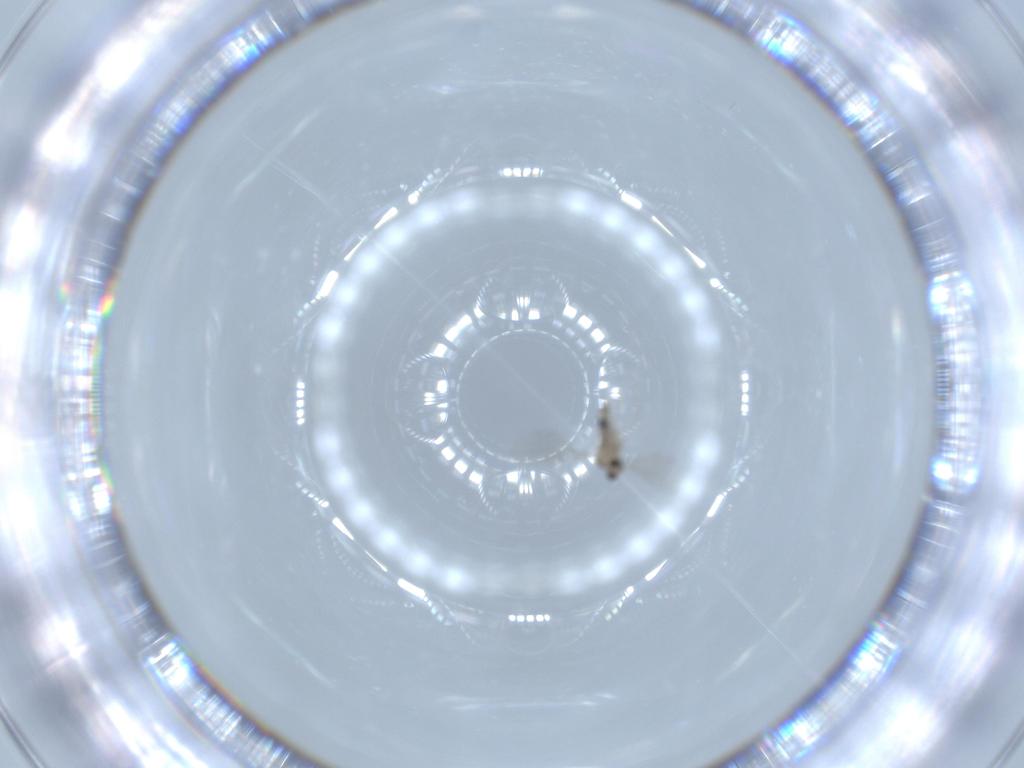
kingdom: Animalia
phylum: Arthropoda
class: Insecta
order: Diptera
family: Cecidomyiidae
